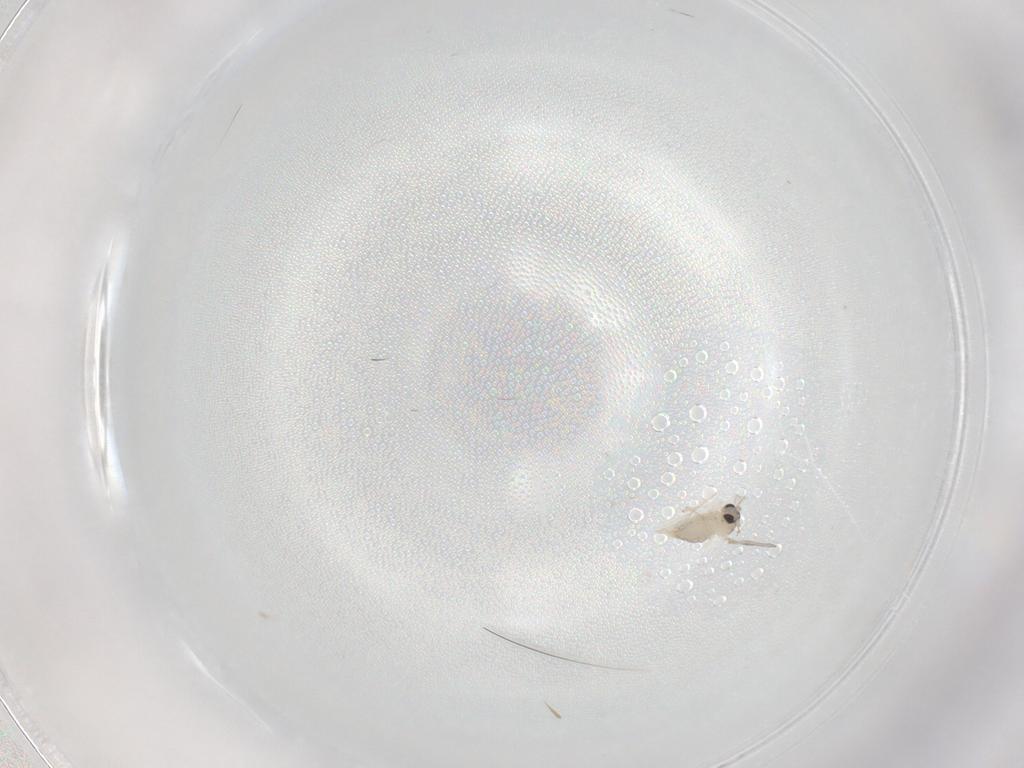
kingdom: Animalia
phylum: Arthropoda
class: Insecta
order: Diptera
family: Cecidomyiidae
